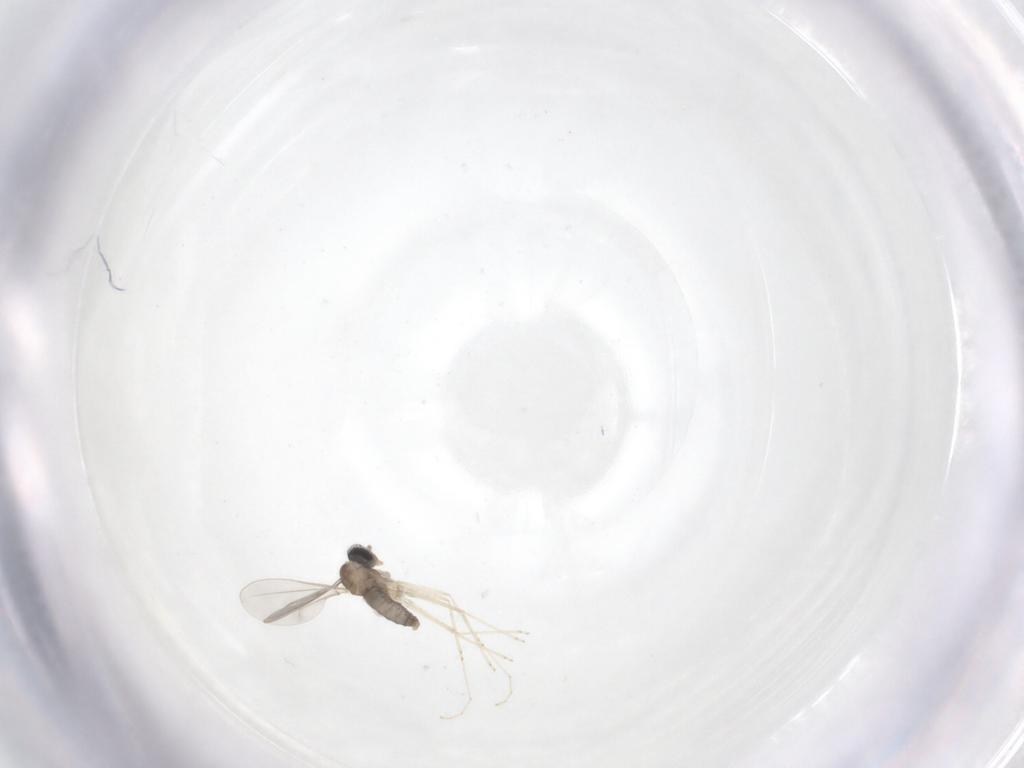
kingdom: Animalia
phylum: Arthropoda
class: Insecta
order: Diptera
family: Cecidomyiidae
